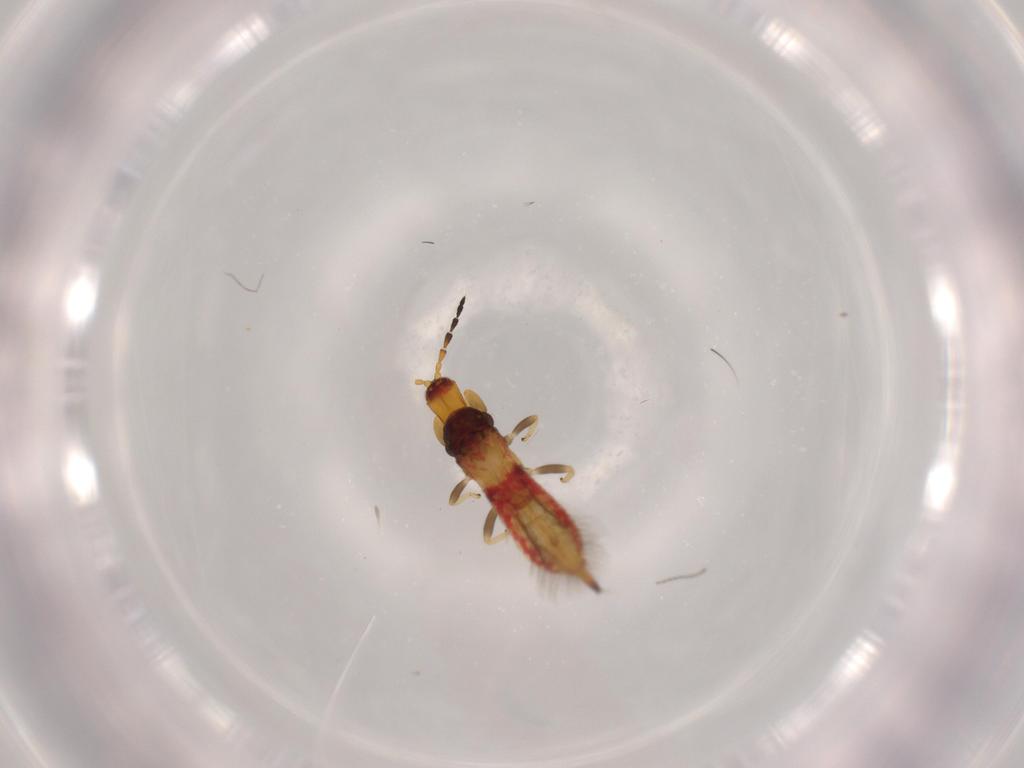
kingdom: Animalia
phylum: Arthropoda
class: Insecta
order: Thysanoptera
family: Phlaeothripidae
